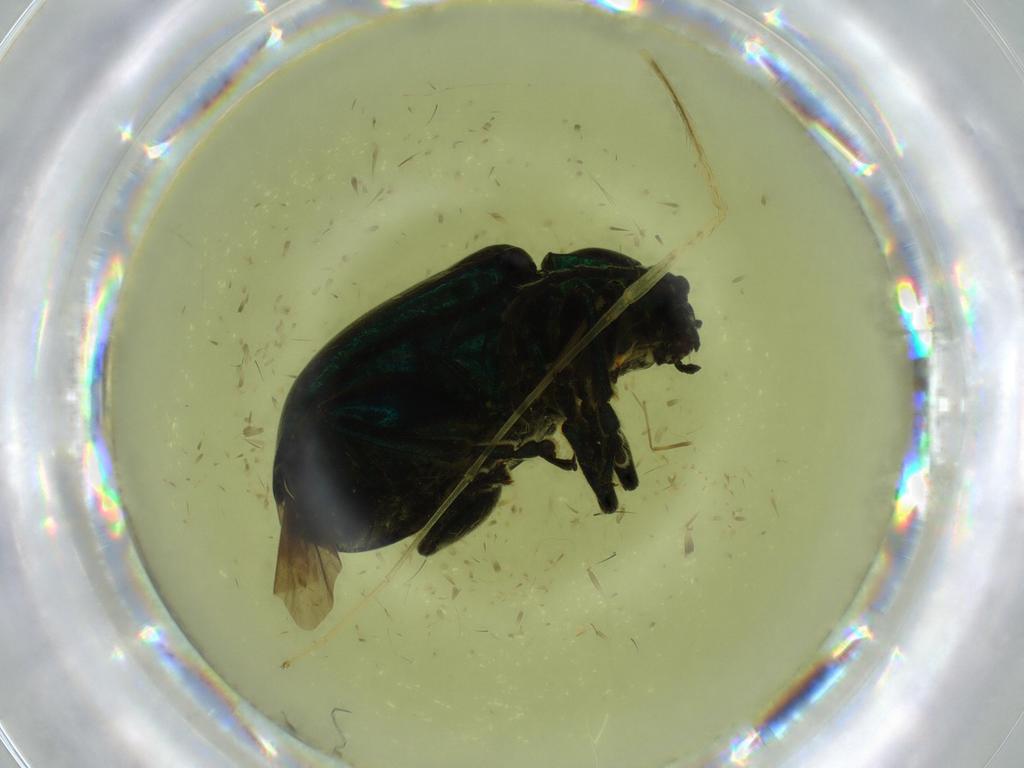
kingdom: Animalia
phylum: Arthropoda
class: Insecta
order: Coleoptera
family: Chrysomelidae
